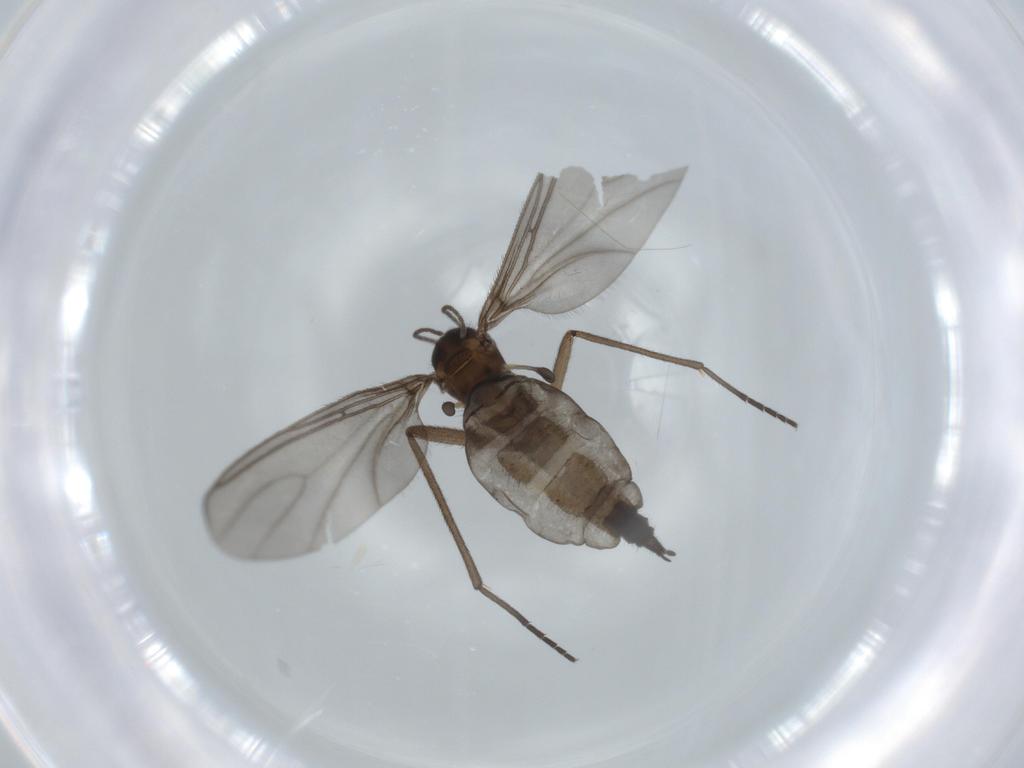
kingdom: Animalia
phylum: Arthropoda
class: Insecta
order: Diptera
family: Sciaridae
